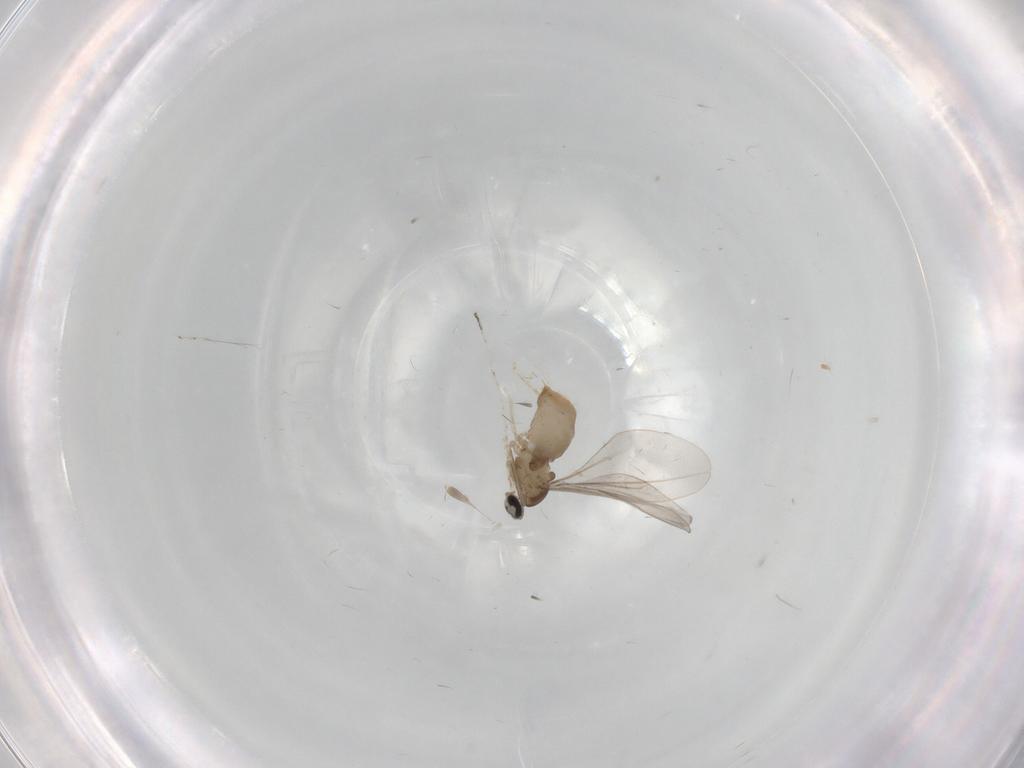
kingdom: Animalia
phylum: Arthropoda
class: Insecta
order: Diptera
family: Cecidomyiidae
